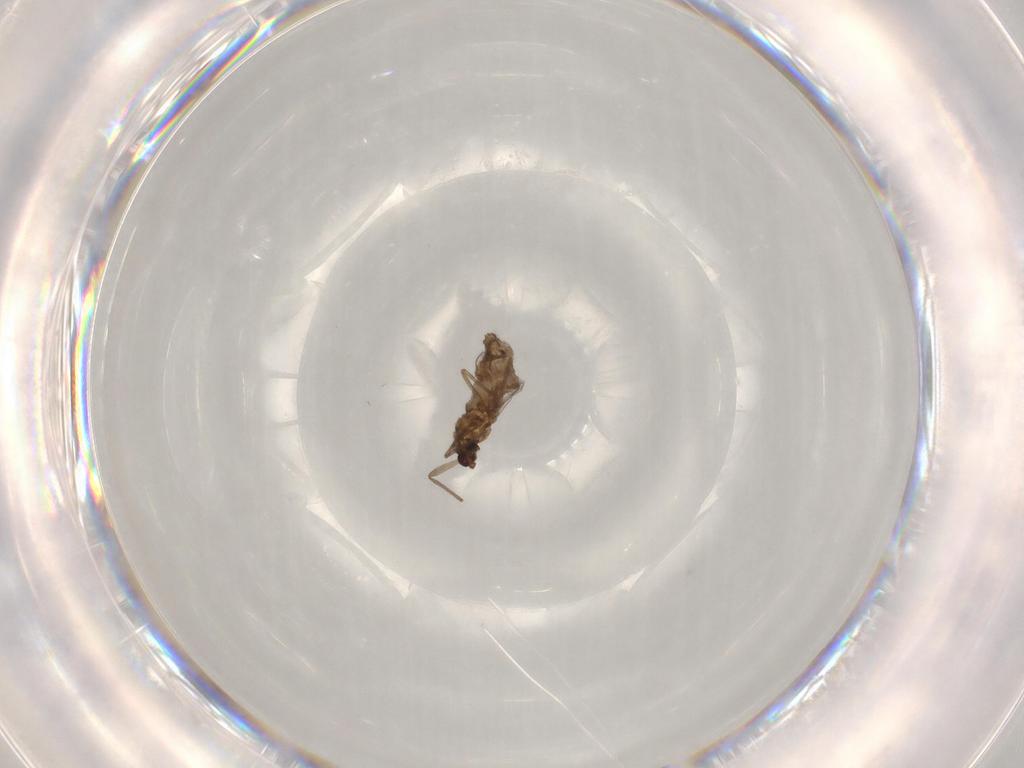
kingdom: Animalia
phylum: Arthropoda
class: Insecta
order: Diptera
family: Chironomidae
